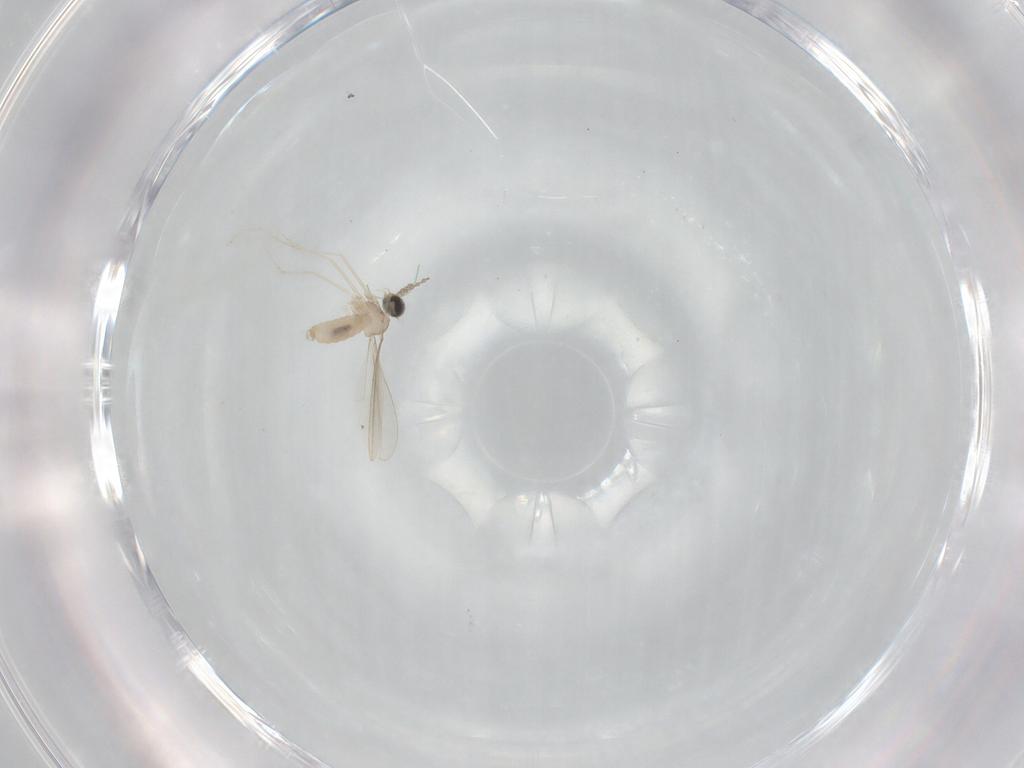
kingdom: Animalia
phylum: Arthropoda
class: Insecta
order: Diptera
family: Cecidomyiidae
